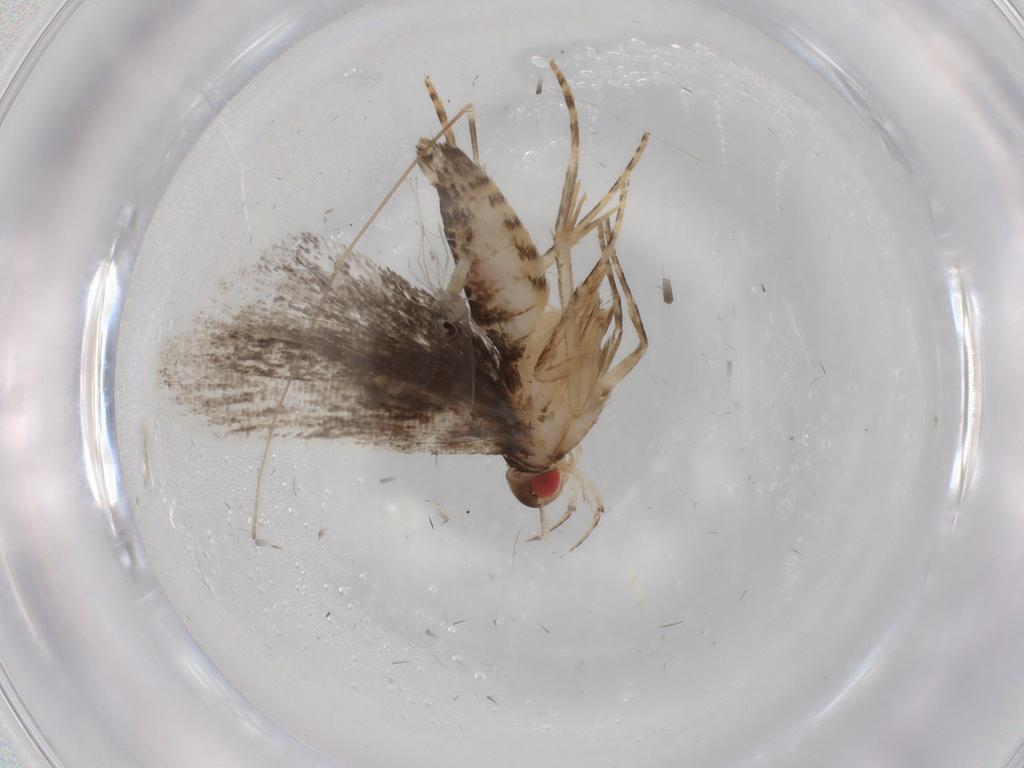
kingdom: Animalia
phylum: Arthropoda
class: Insecta
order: Lepidoptera
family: Gelechiidae
